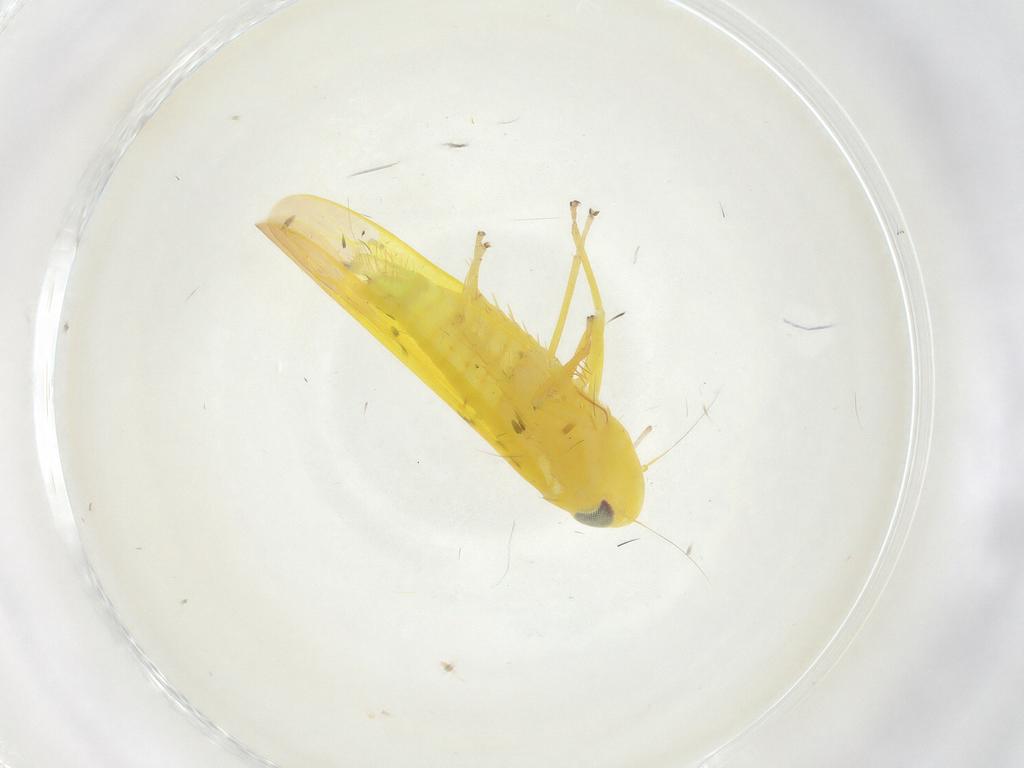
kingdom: Animalia
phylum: Arthropoda
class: Insecta
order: Hemiptera
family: Cicadellidae
